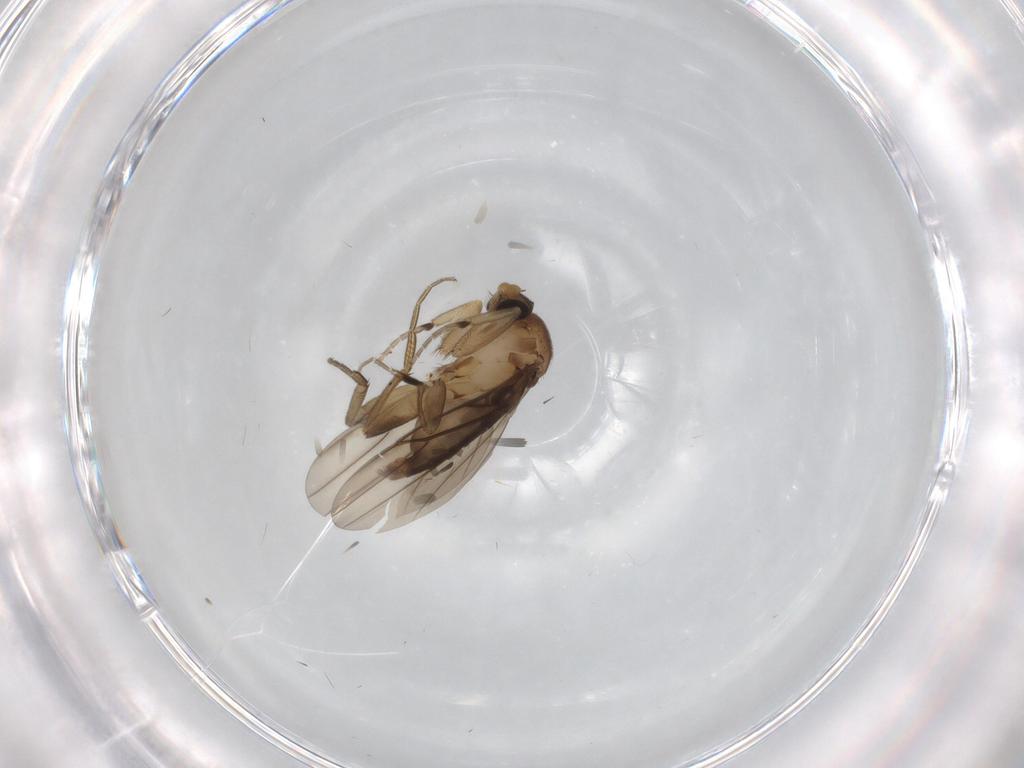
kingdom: Animalia
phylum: Arthropoda
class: Insecta
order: Diptera
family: Phoridae
